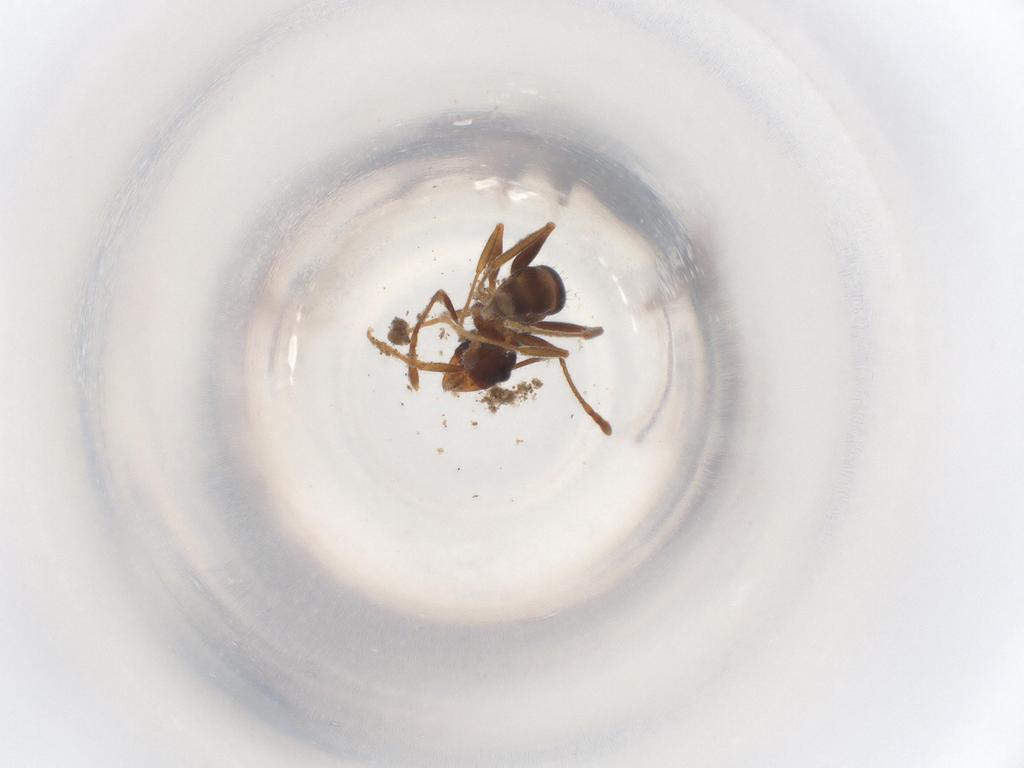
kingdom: Animalia
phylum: Arthropoda
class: Insecta
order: Hymenoptera
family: Formicidae
